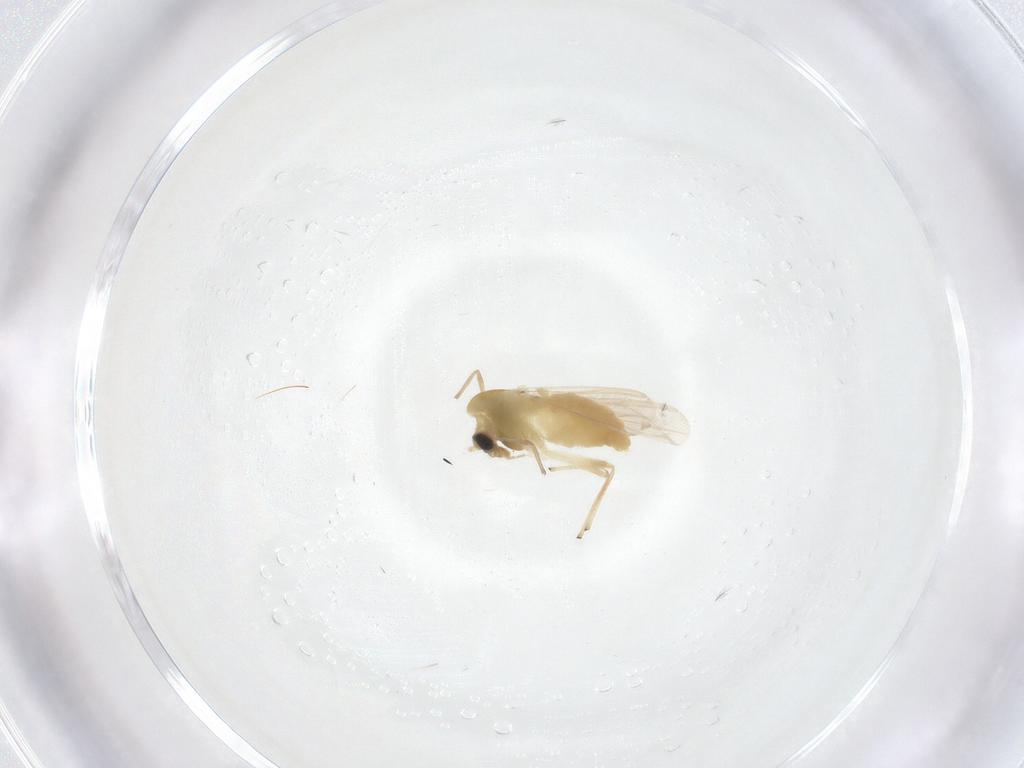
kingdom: Animalia
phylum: Arthropoda
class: Insecta
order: Diptera
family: Chironomidae
